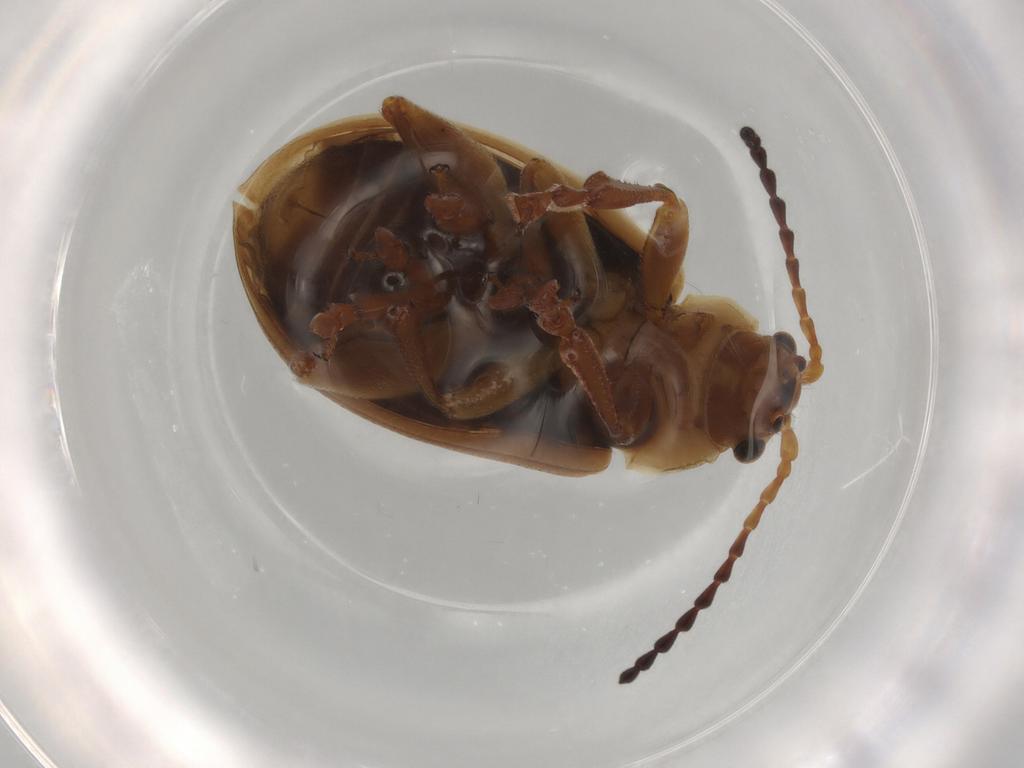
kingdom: Animalia
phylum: Arthropoda
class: Insecta
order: Coleoptera
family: Chrysomelidae
